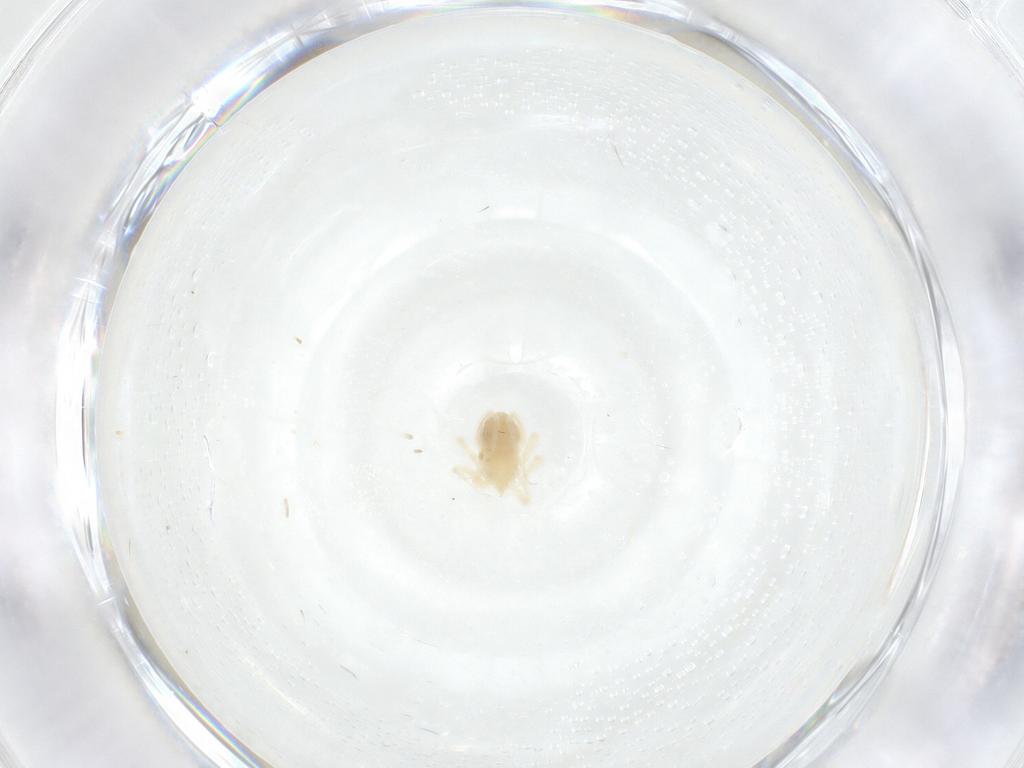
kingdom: Animalia
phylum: Arthropoda
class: Arachnida
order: Trombidiformes
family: Anystidae
